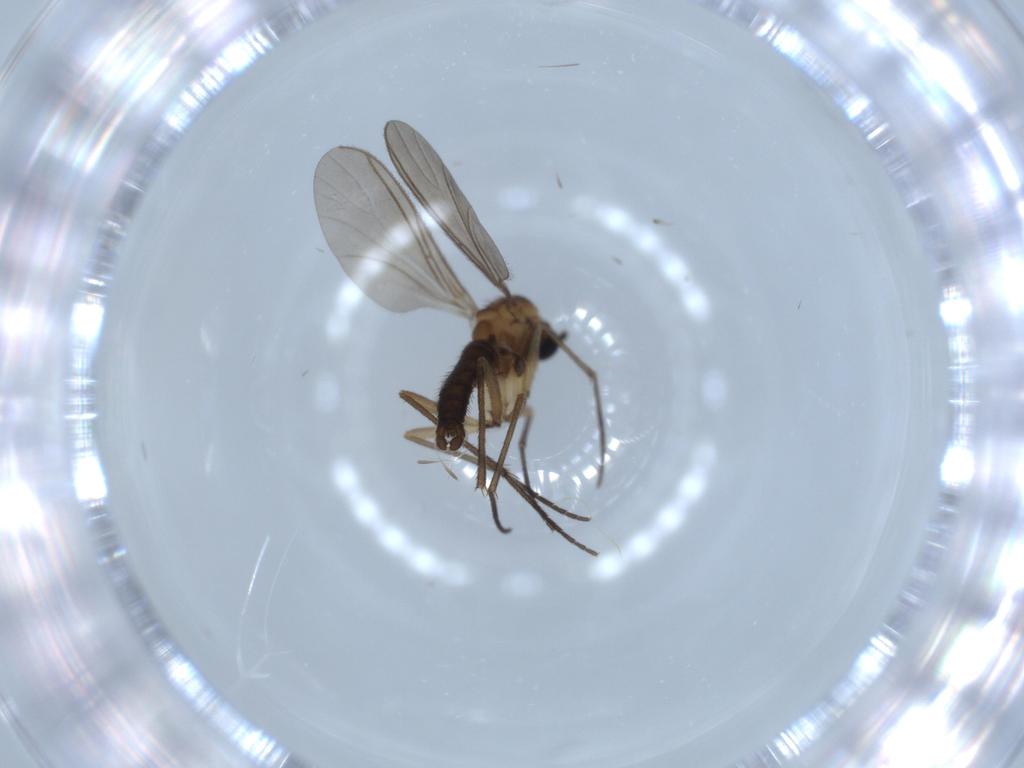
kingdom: Animalia
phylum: Arthropoda
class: Insecta
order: Diptera
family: Sciaridae
